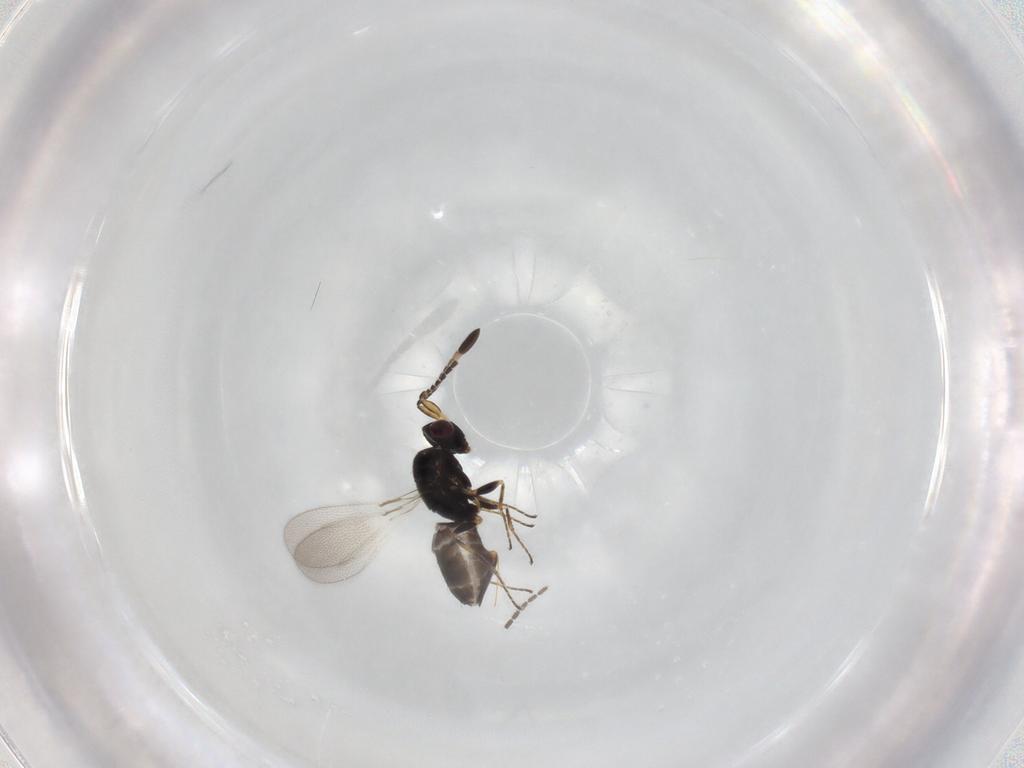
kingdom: Animalia
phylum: Arthropoda
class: Insecta
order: Hymenoptera
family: Mymaridae
